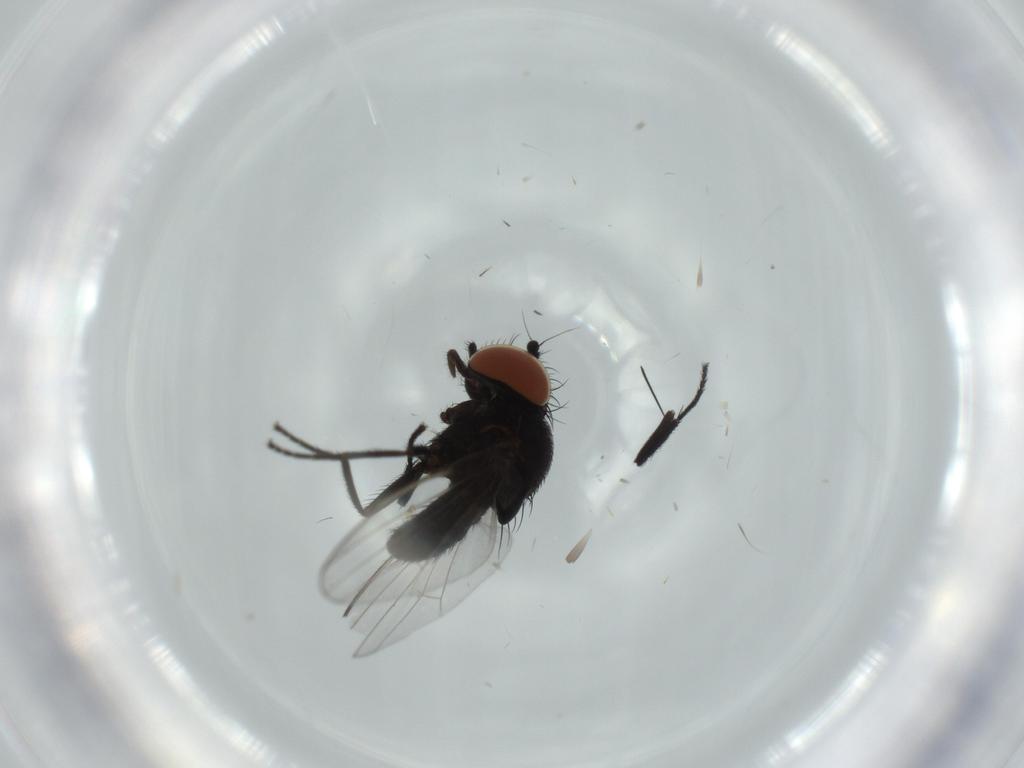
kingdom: Animalia
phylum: Arthropoda
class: Insecta
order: Diptera
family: Milichiidae
